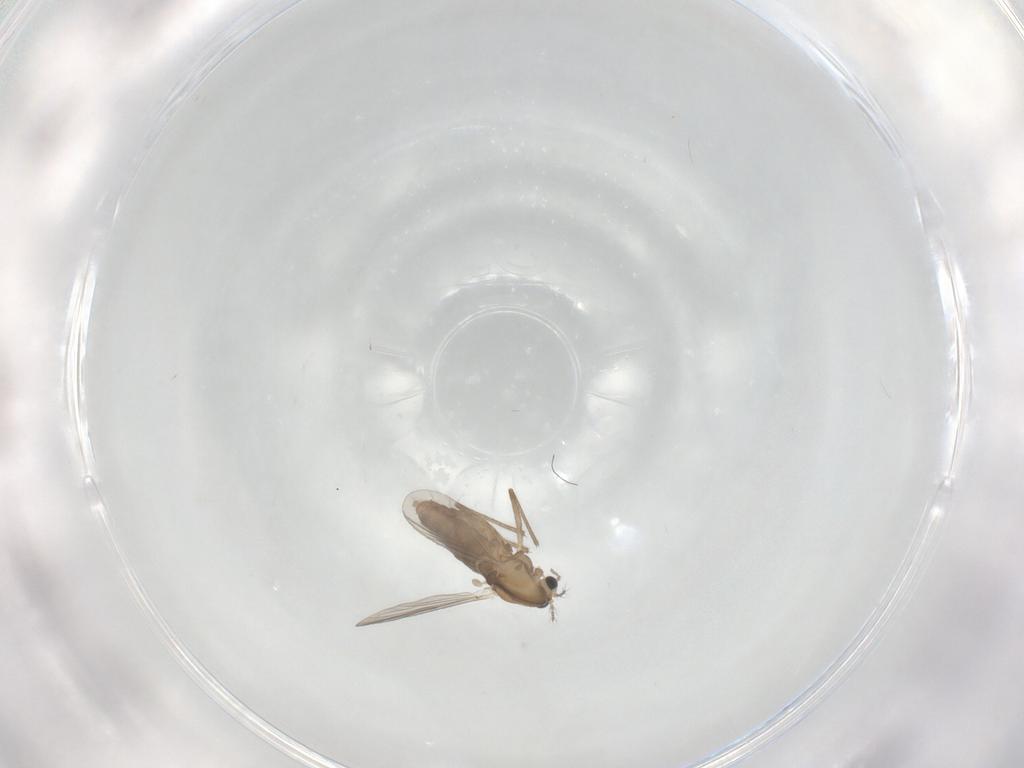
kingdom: Animalia
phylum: Arthropoda
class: Insecta
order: Diptera
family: Chironomidae
